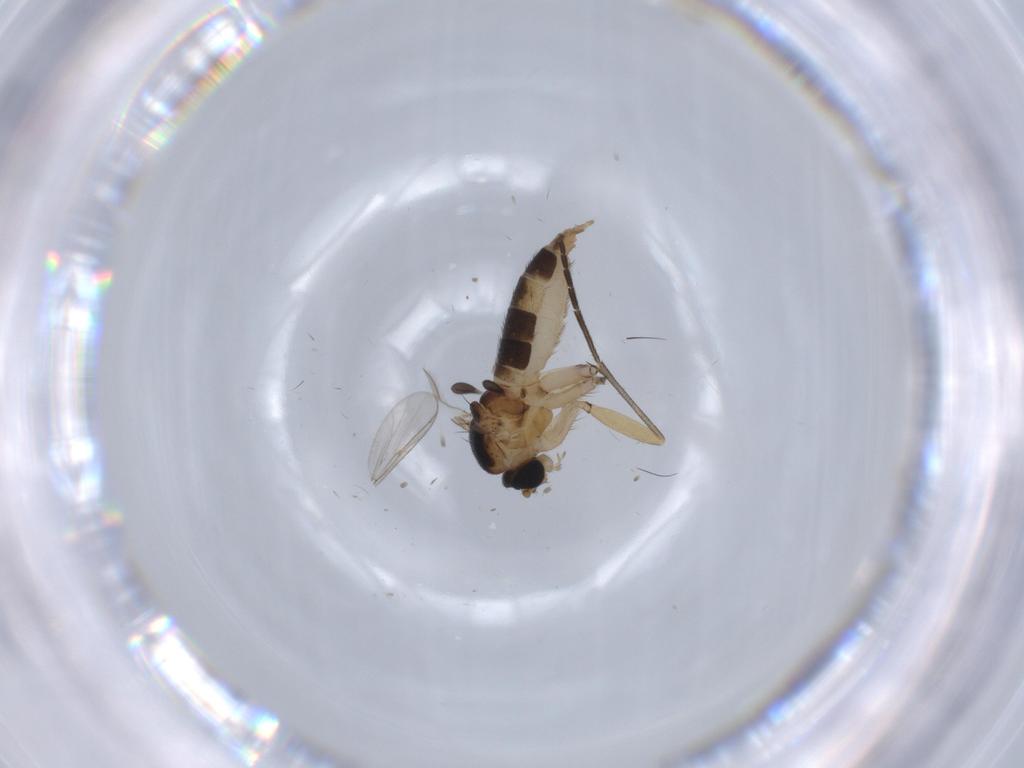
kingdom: Animalia
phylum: Arthropoda
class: Insecta
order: Diptera
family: Sciaridae
